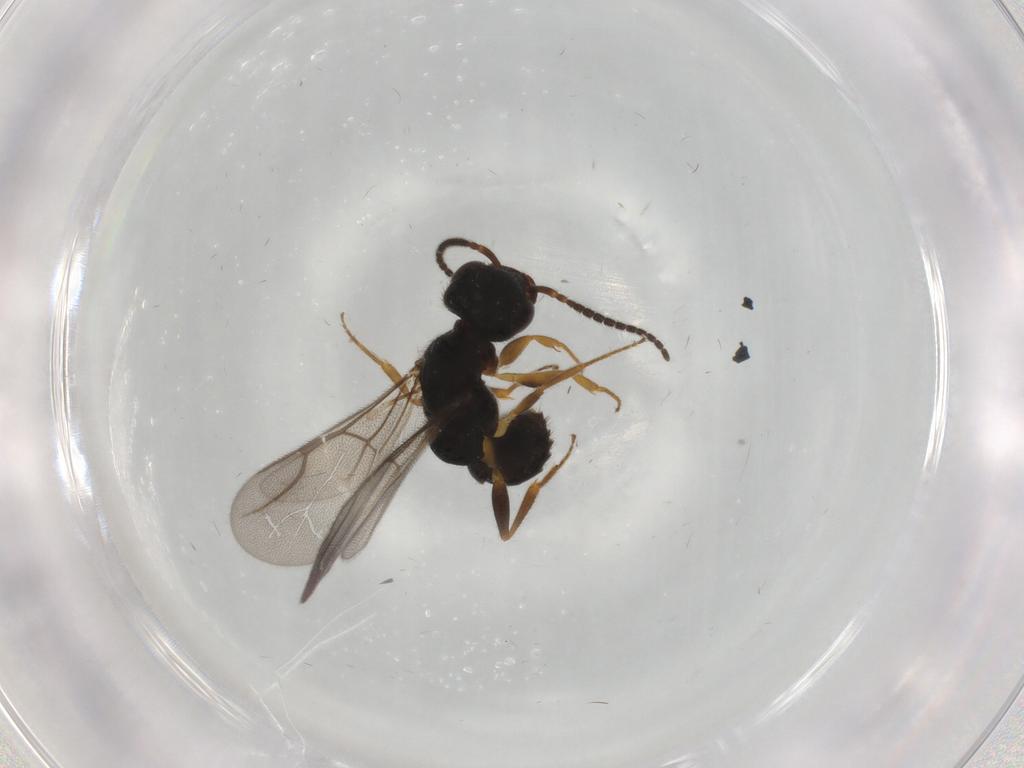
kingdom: Animalia
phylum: Arthropoda
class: Insecta
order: Hymenoptera
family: Bethylidae
